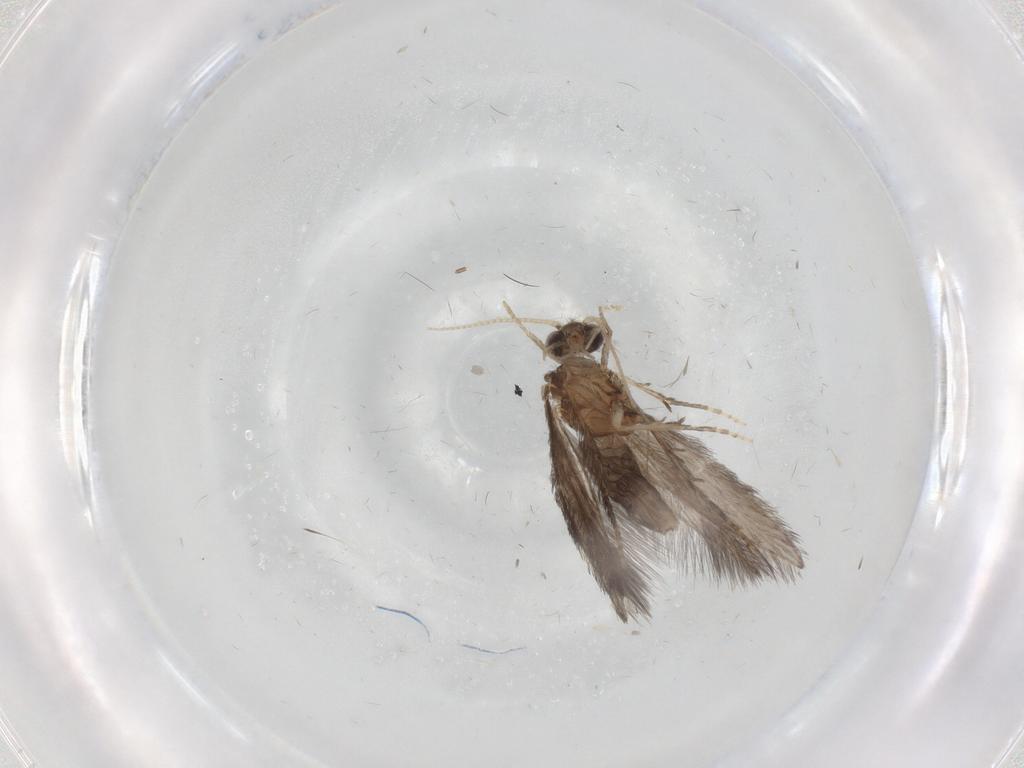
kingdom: Animalia
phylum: Arthropoda
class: Insecta
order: Trichoptera
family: Hydroptilidae
